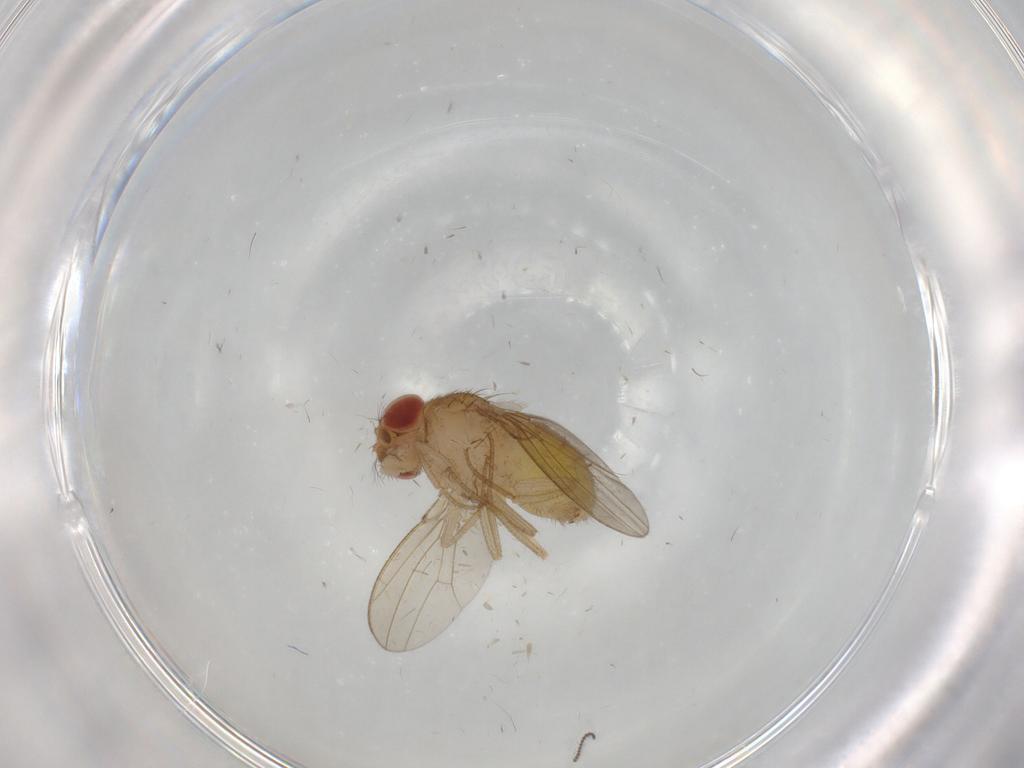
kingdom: Animalia
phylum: Arthropoda
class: Insecta
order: Diptera
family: Drosophilidae
